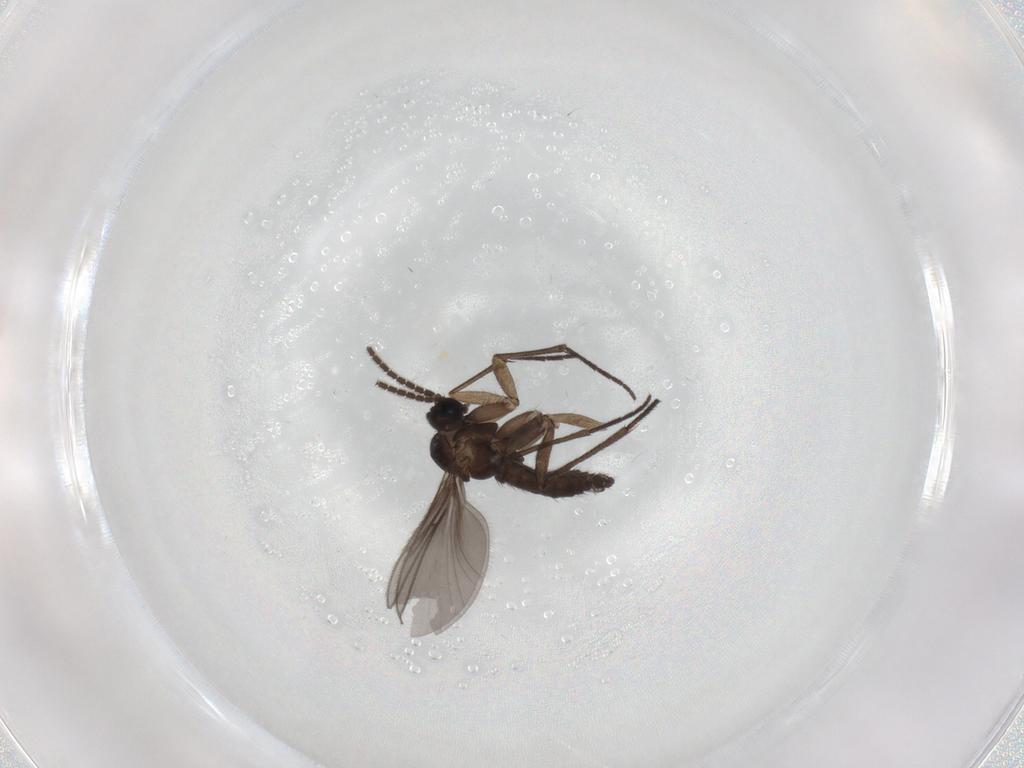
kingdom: Animalia
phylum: Arthropoda
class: Insecta
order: Diptera
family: Sciaridae
